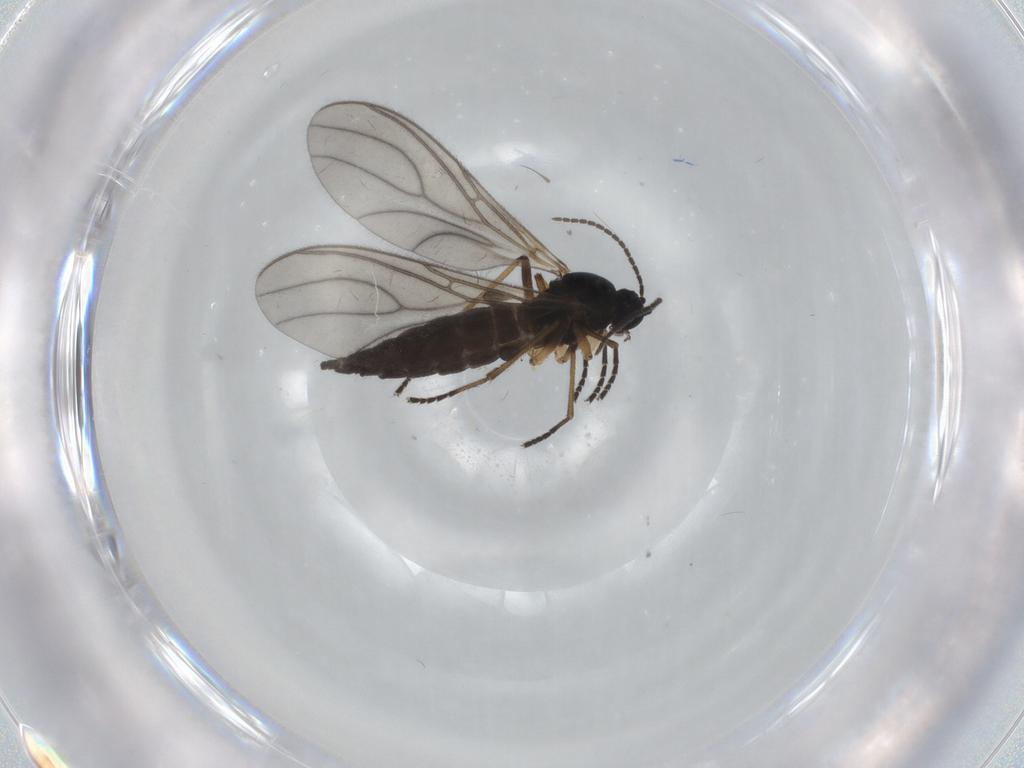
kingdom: Animalia
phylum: Arthropoda
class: Insecta
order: Diptera
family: Sciaridae
